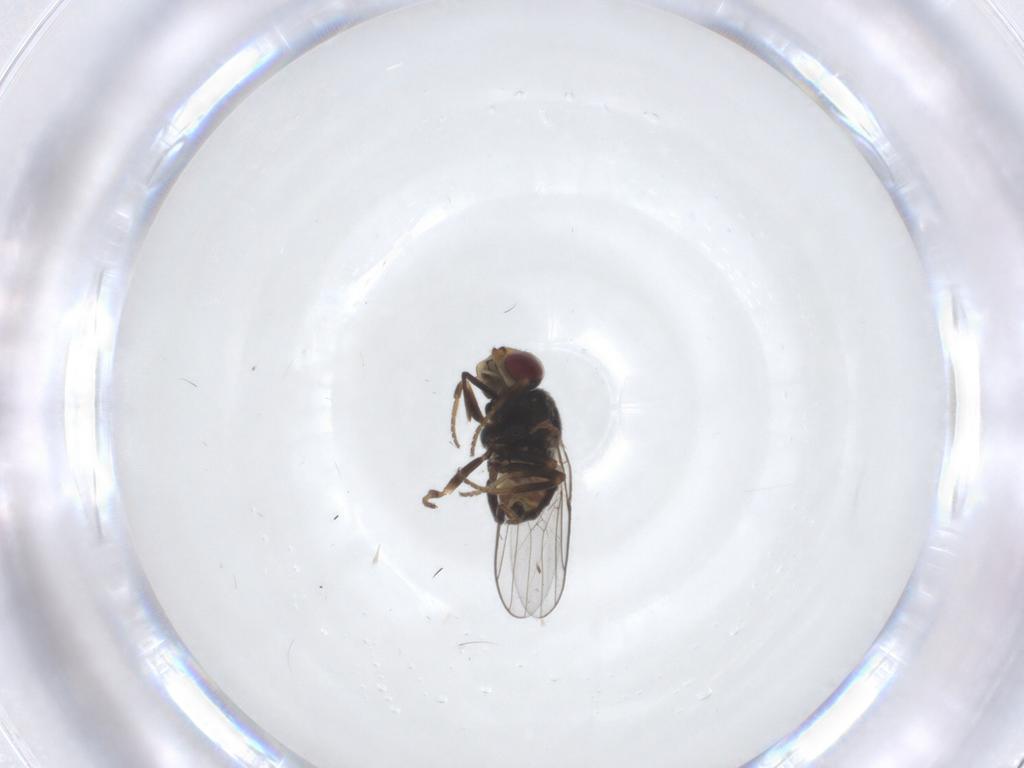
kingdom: Animalia
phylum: Arthropoda
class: Insecta
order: Diptera
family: Chloropidae
